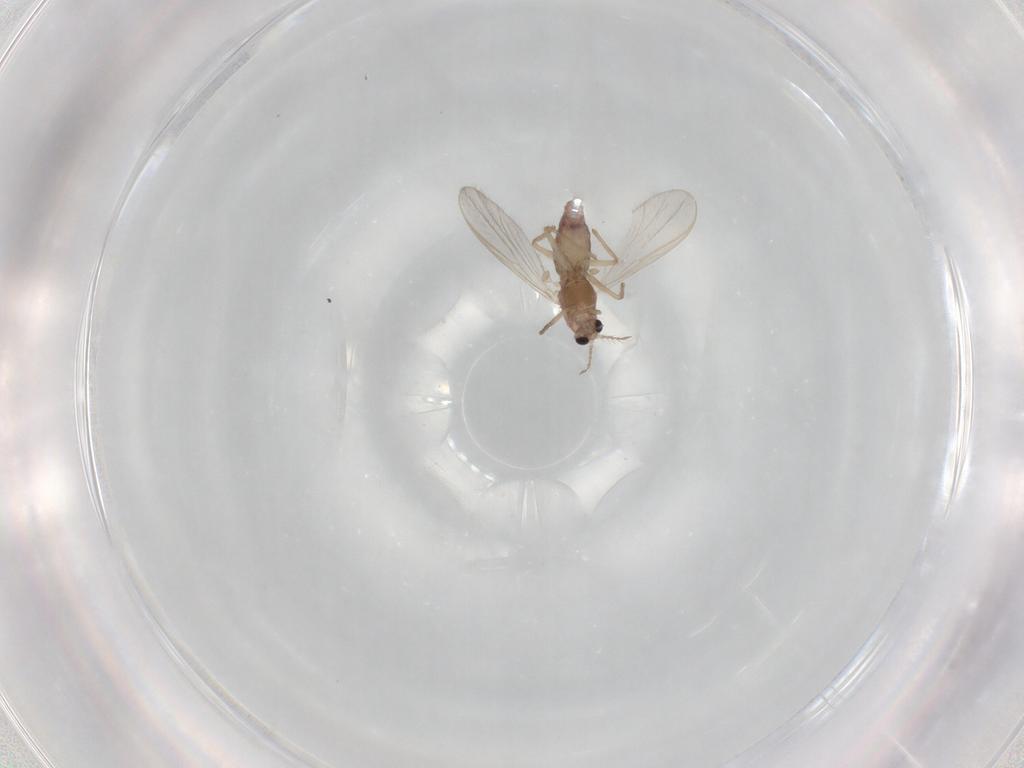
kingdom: Animalia
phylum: Arthropoda
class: Insecta
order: Diptera
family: Chironomidae
